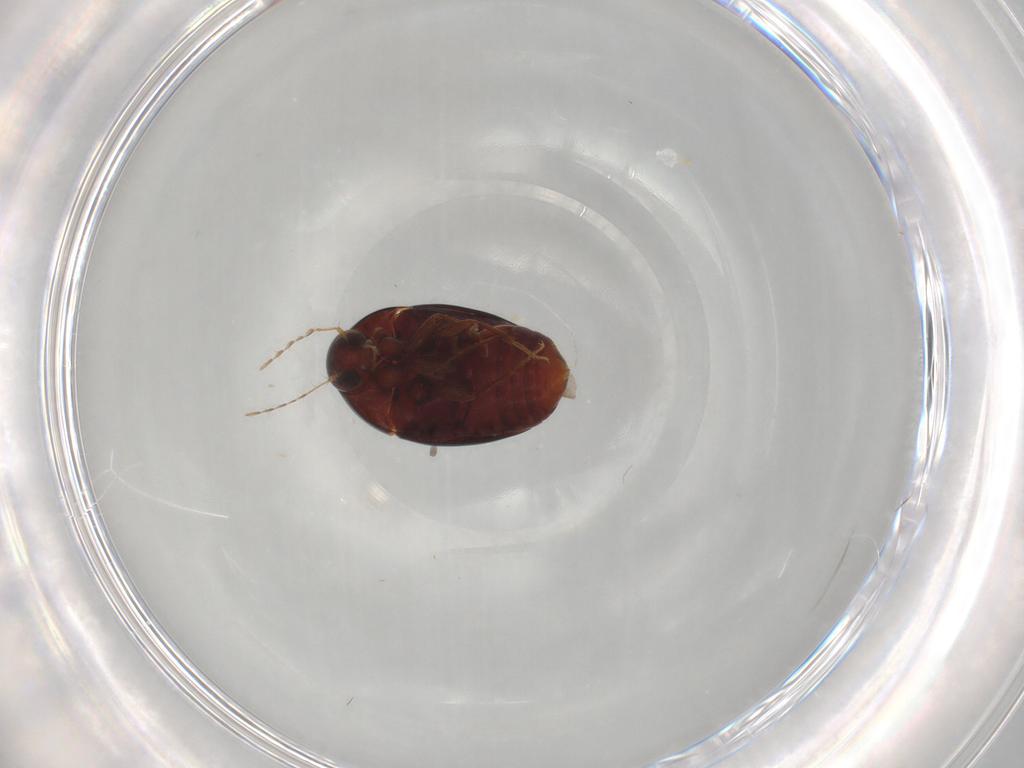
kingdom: Animalia
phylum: Arthropoda
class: Insecta
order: Coleoptera
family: Staphylinidae
